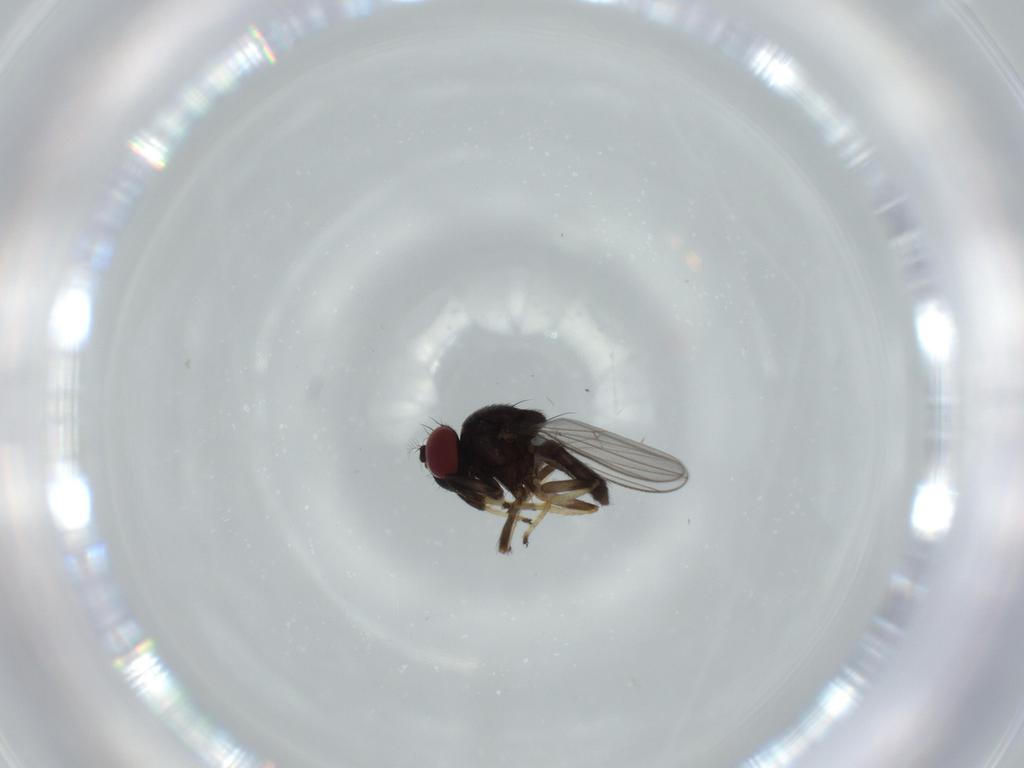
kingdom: Animalia
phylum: Arthropoda
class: Insecta
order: Diptera
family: Ephydridae
